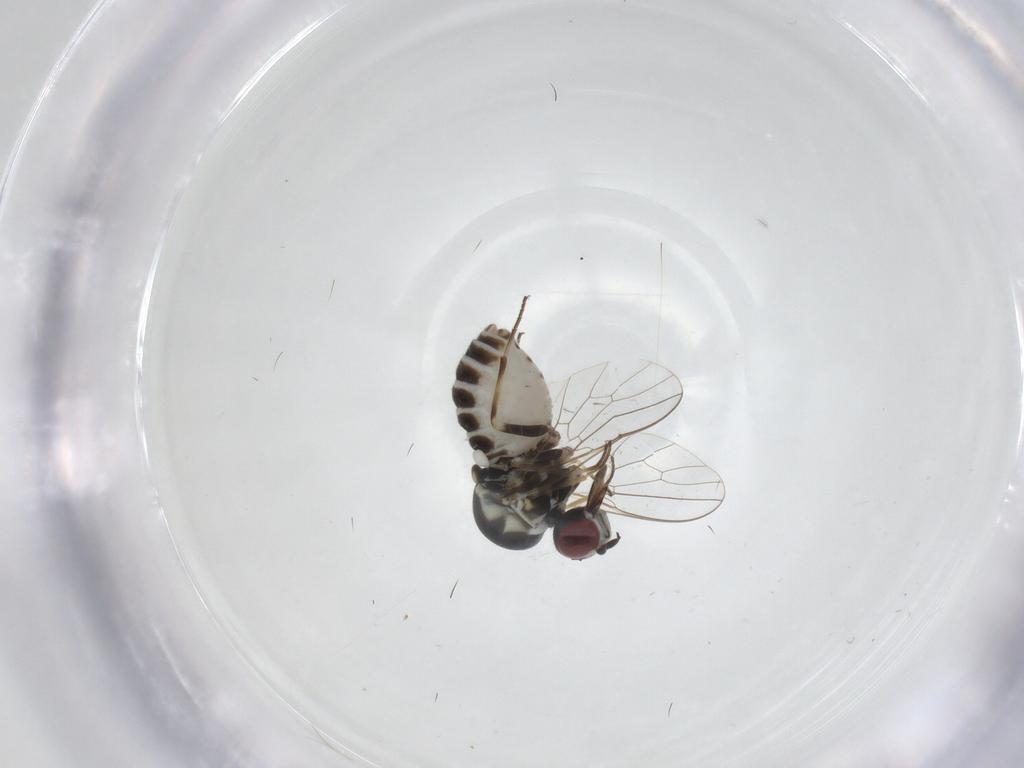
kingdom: Animalia
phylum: Arthropoda
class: Insecta
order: Diptera
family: Bombyliidae
